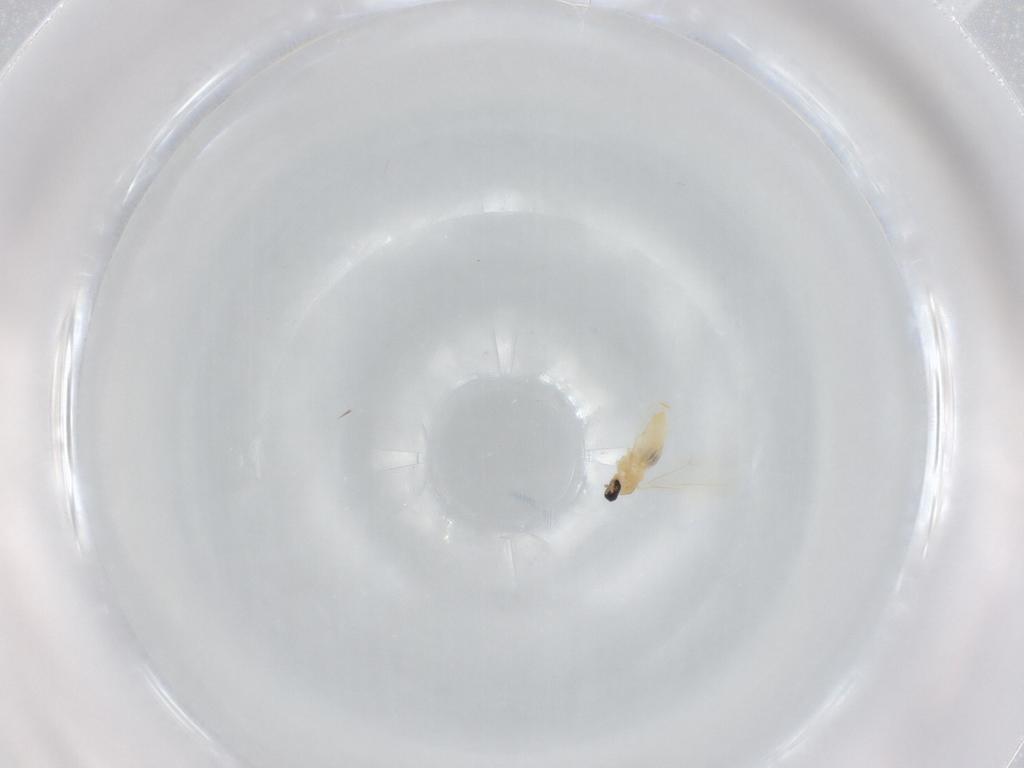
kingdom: Animalia
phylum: Arthropoda
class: Insecta
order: Diptera
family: Cecidomyiidae
